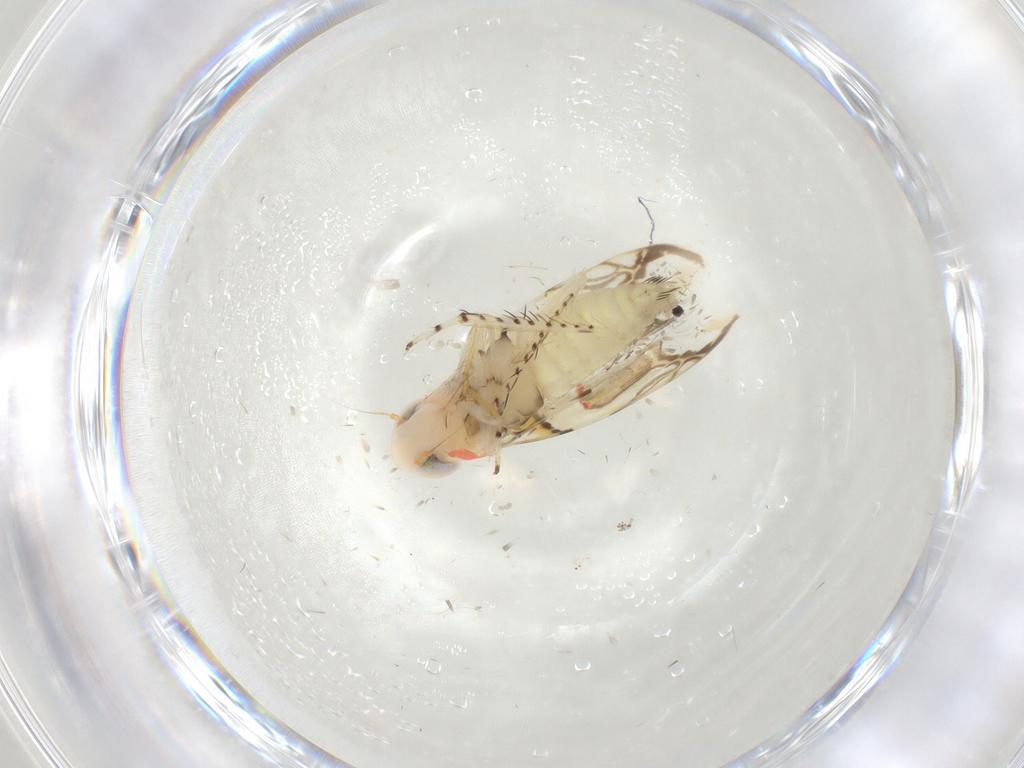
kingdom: Animalia
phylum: Arthropoda
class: Insecta
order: Hemiptera
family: Cicadellidae
